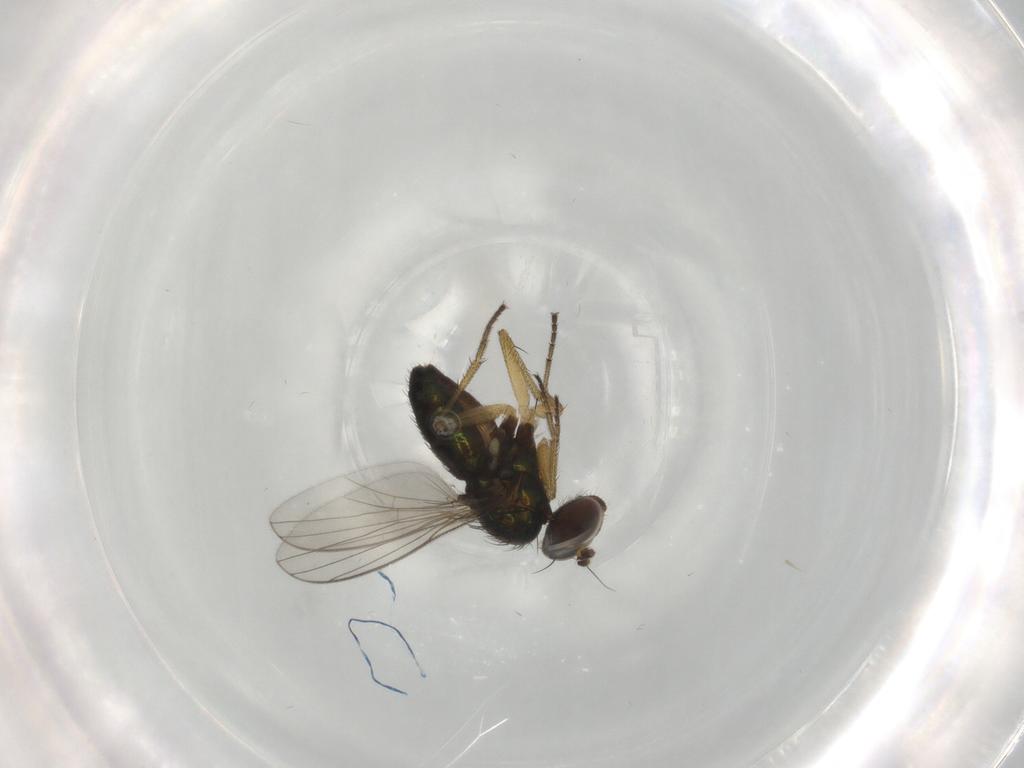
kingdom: Animalia
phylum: Arthropoda
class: Insecta
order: Diptera
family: Dolichopodidae
